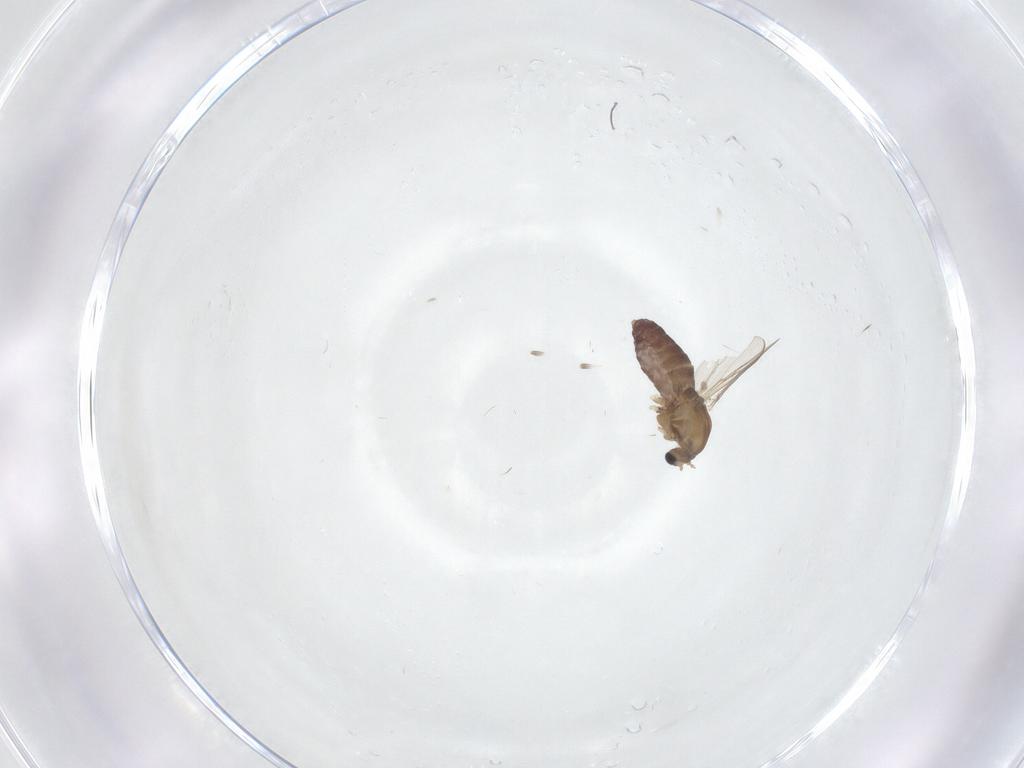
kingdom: Animalia
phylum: Arthropoda
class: Insecta
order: Diptera
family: Chironomidae
